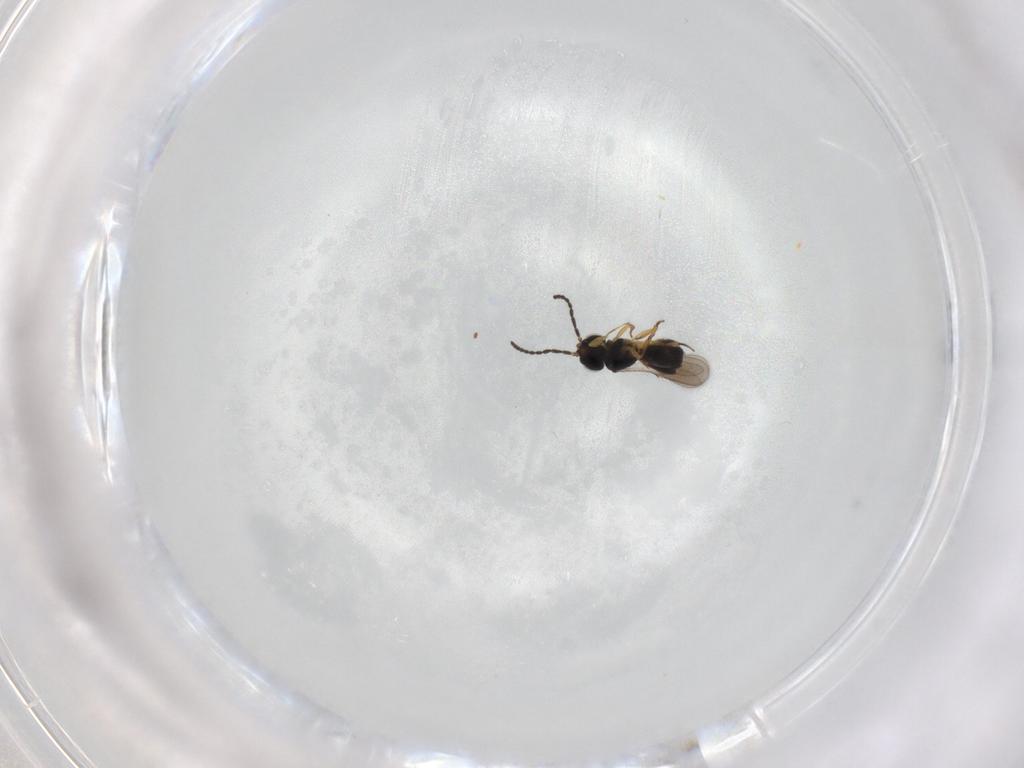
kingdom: Animalia
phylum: Arthropoda
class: Insecta
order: Hymenoptera
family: Scelionidae
